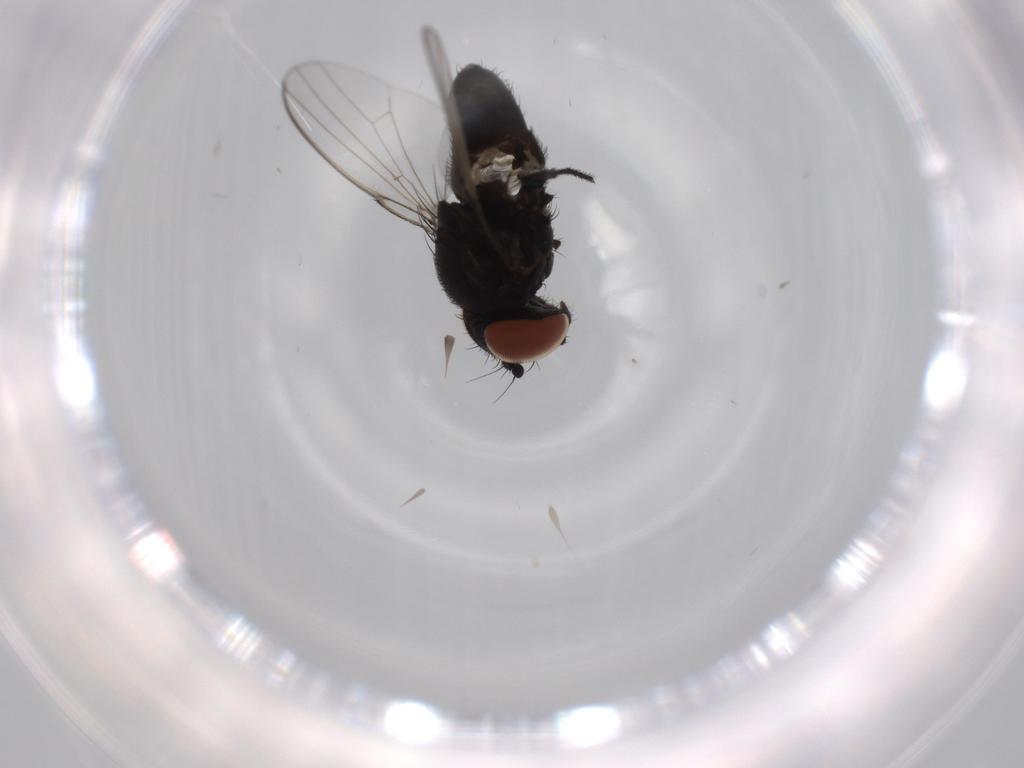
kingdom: Animalia
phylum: Arthropoda
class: Insecta
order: Diptera
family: Milichiidae
